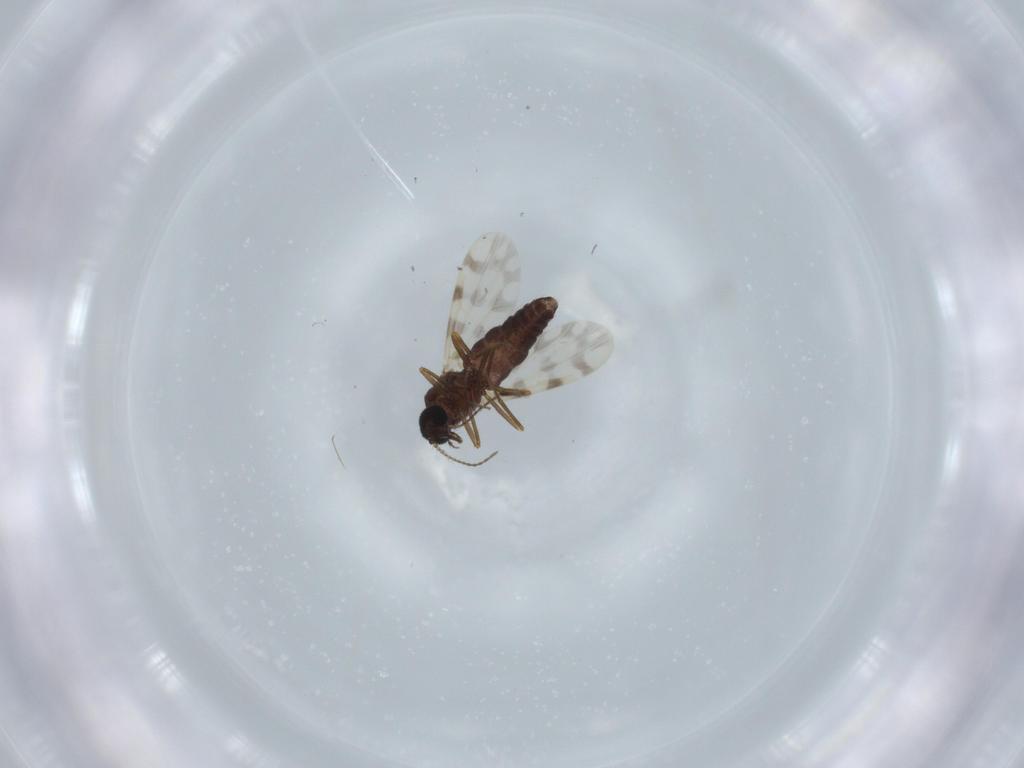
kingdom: Animalia
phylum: Arthropoda
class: Insecta
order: Diptera
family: Ceratopogonidae
